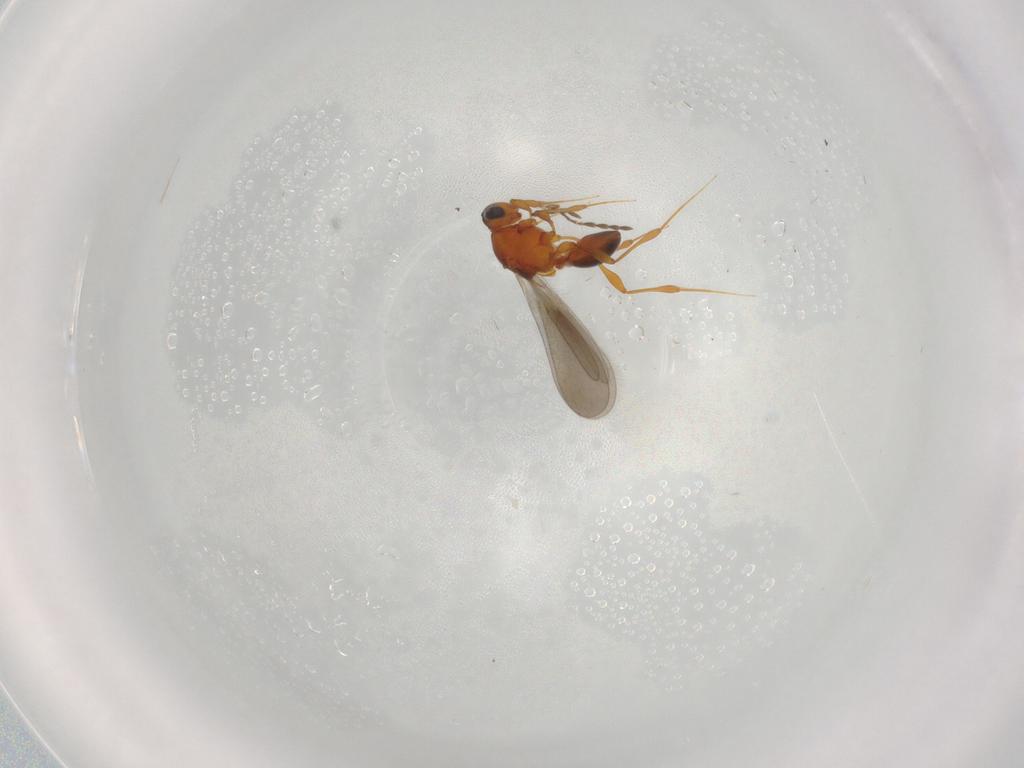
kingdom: Animalia
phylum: Arthropoda
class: Insecta
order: Hymenoptera
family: Platygastridae
